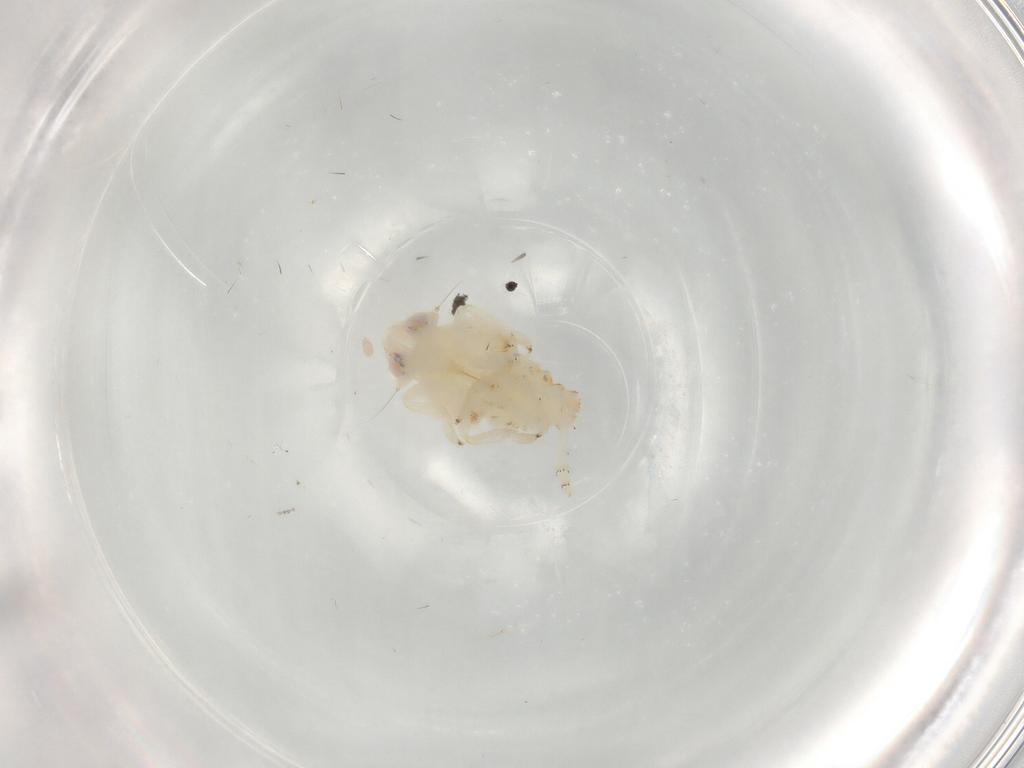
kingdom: Animalia
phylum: Arthropoda
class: Insecta
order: Hemiptera
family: Nogodinidae
